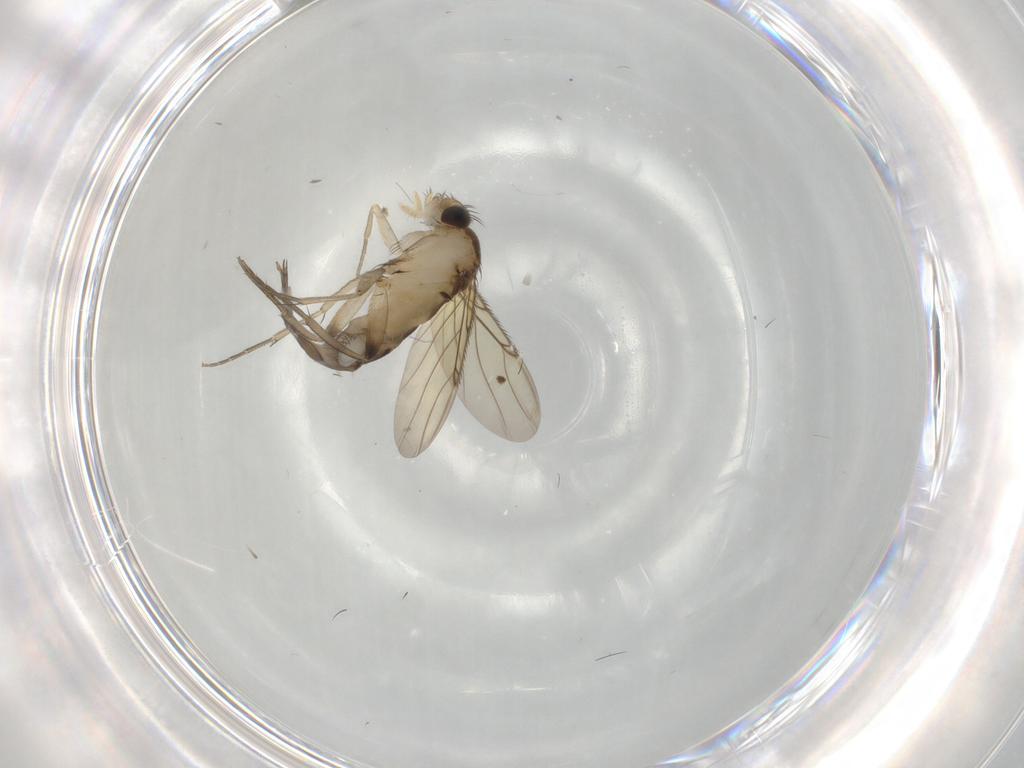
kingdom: Animalia
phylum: Arthropoda
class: Insecta
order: Diptera
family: Phoridae
